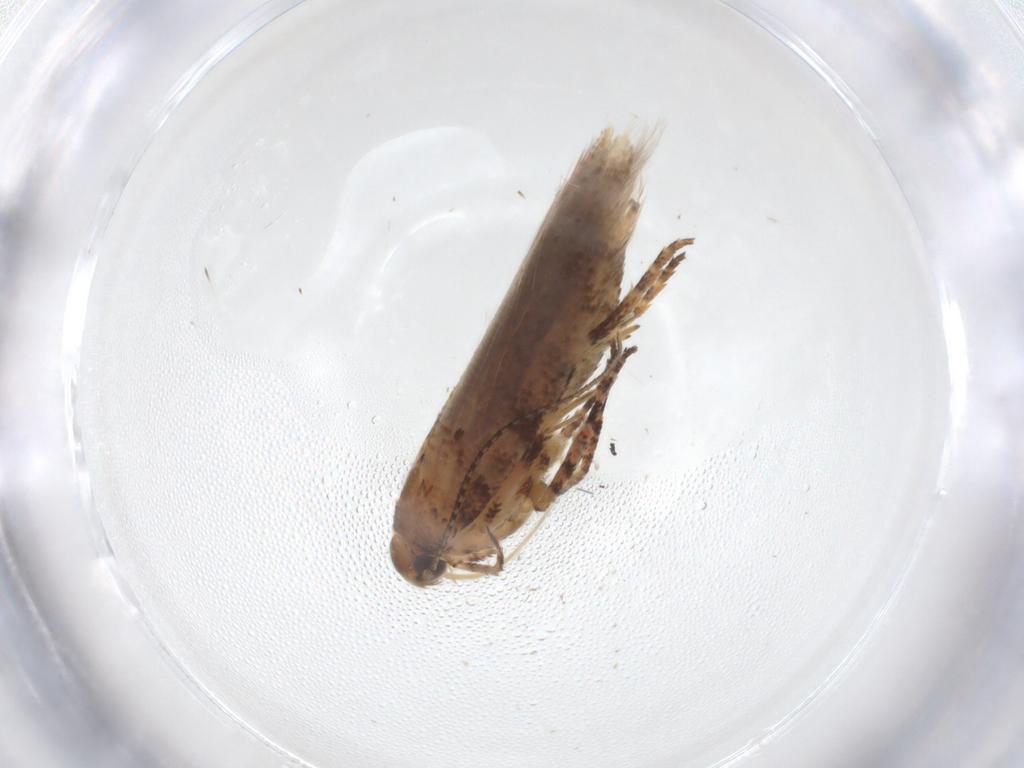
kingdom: Animalia
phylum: Arthropoda
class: Insecta
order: Lepidoptera
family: Gelechiidae
